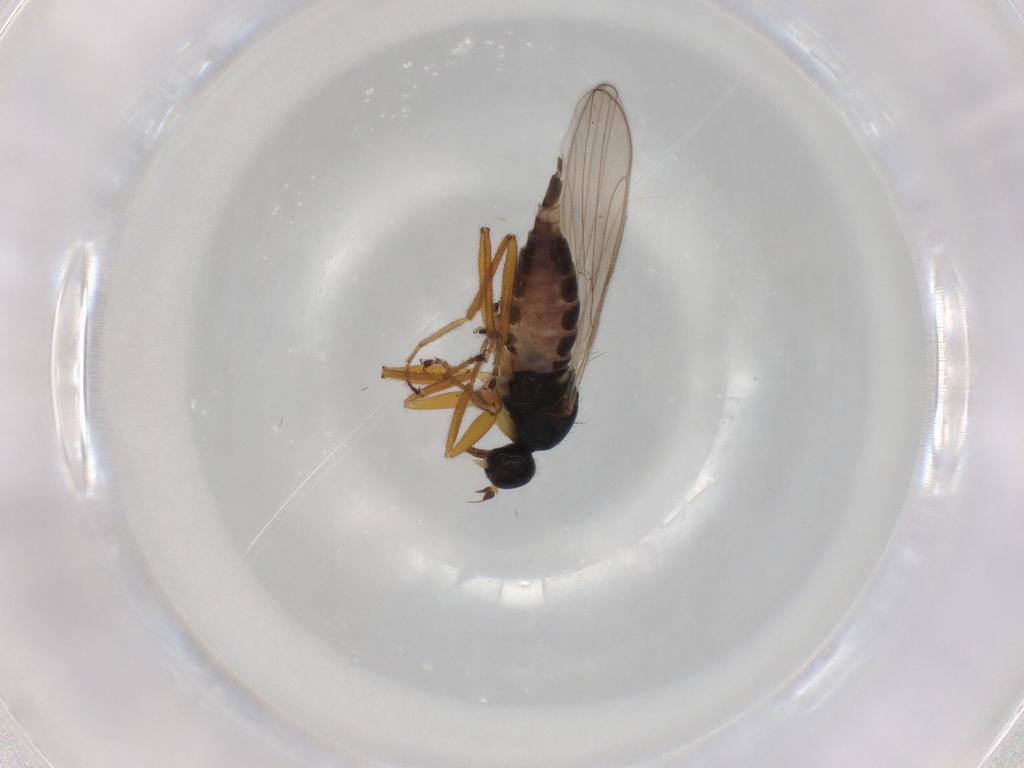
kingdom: Animalia
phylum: Arthropoda
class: Insecta
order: Diptera
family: Hybotidae
